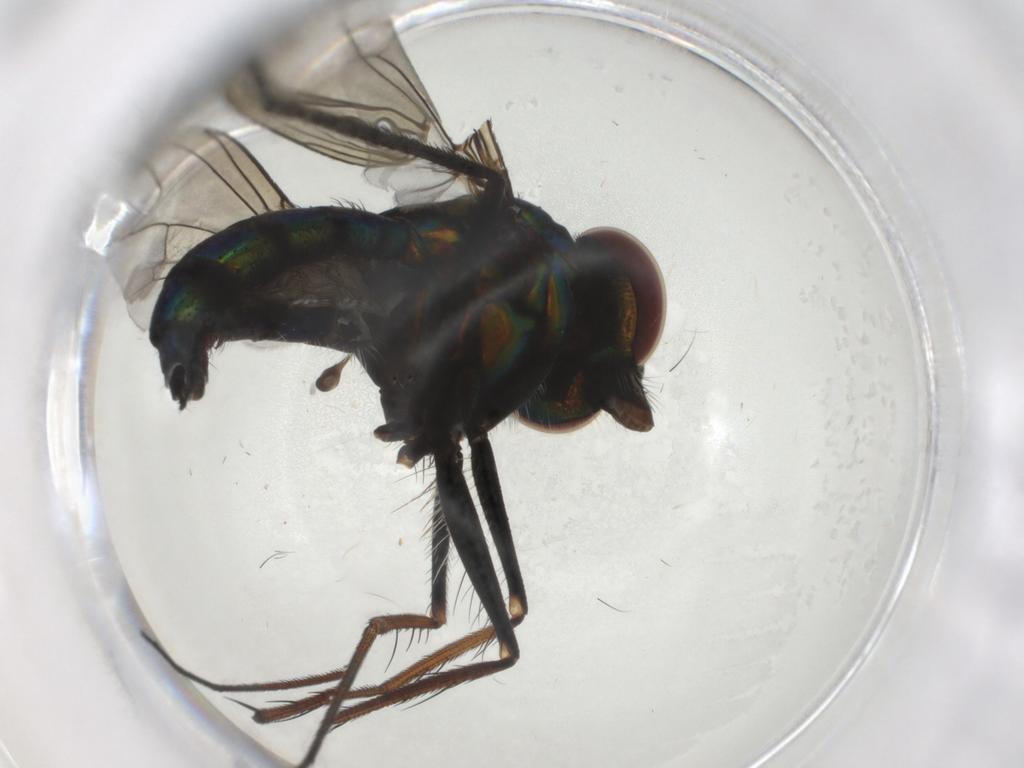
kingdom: Animalia
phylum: Arthropoda
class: Insecta
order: Diptera
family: Dolichopodidae
